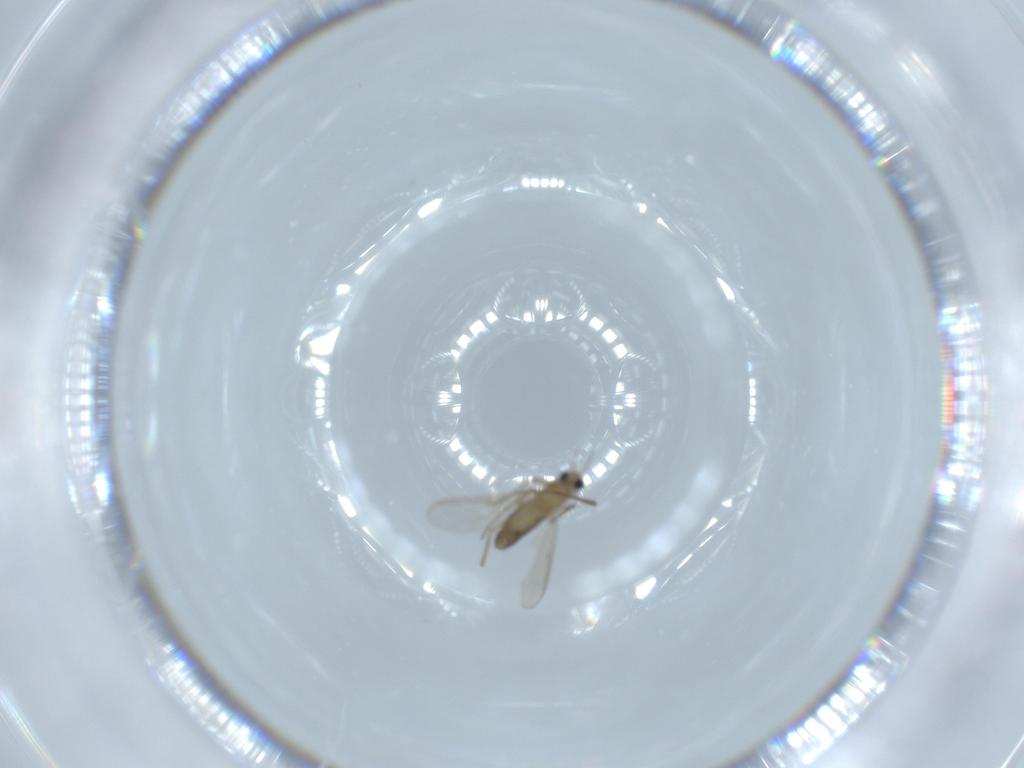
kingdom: Animalia
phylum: Arthropoda
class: Insecta
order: Diptera
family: Chironomidae
